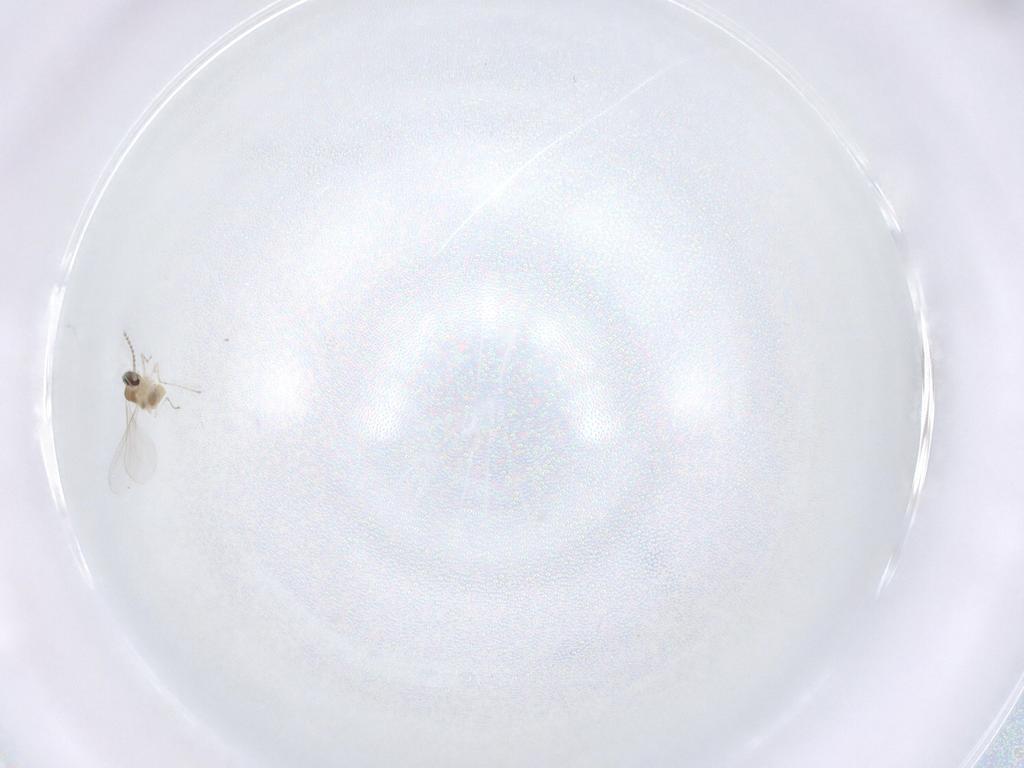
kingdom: Animalia
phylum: Arthropoda
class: Insecta
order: Diptera
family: Cecidomyiidae
